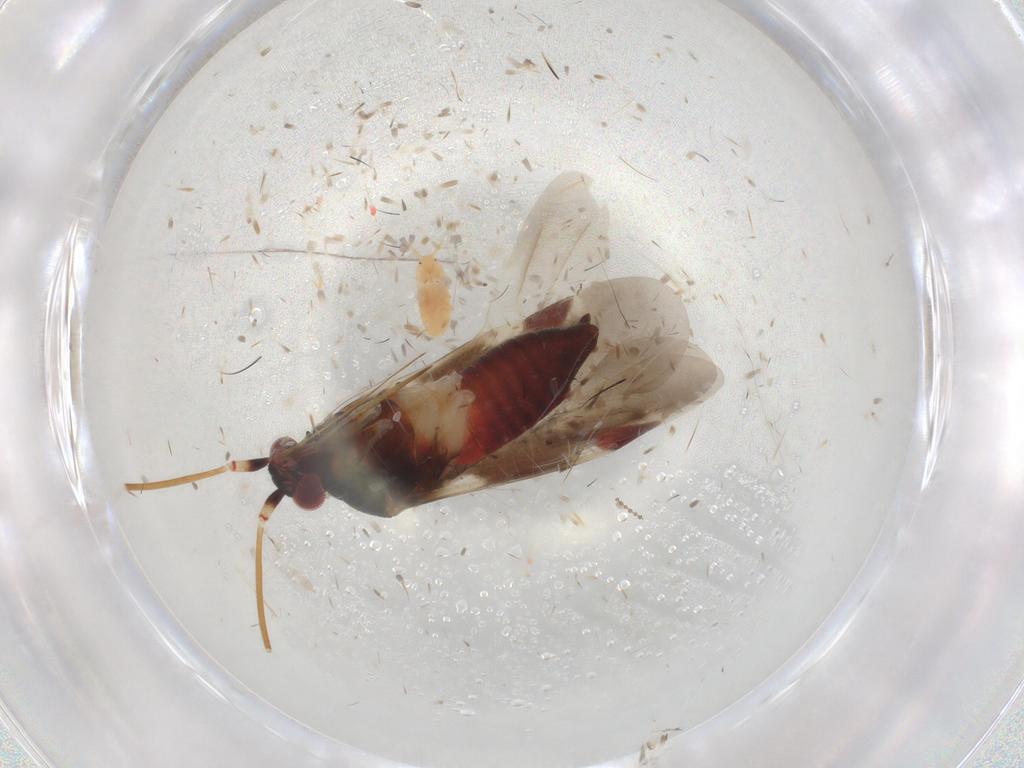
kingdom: Animalia
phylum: Arthropoda
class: Insecta
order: Hemiptera
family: Miridae
